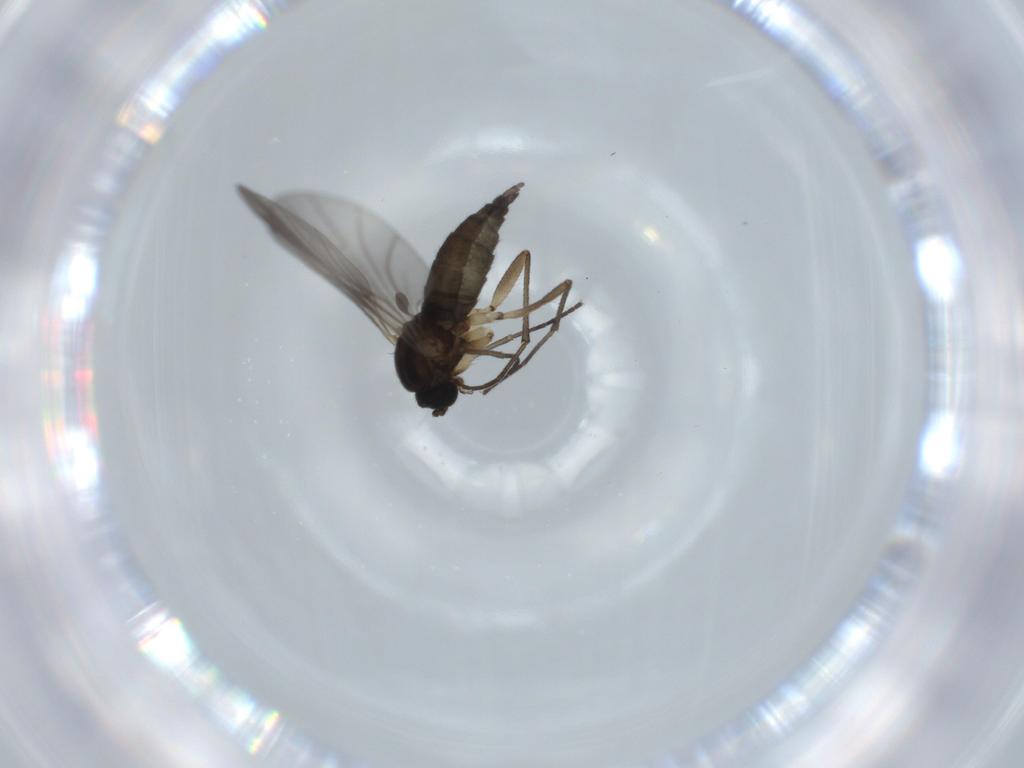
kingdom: Animalia
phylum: Arthropoda
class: Insecta
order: Diptera
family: Sciaridae
